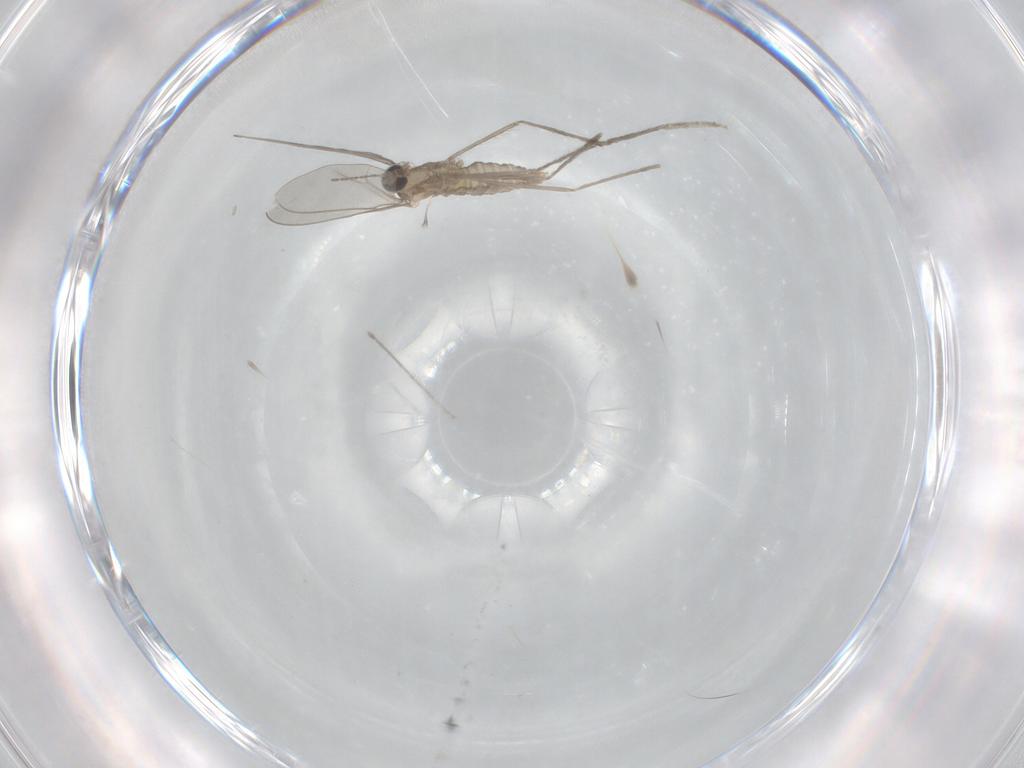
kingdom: Animalia
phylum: Arthropoda
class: Insecta
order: Diptera
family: Cecidomyiidae
